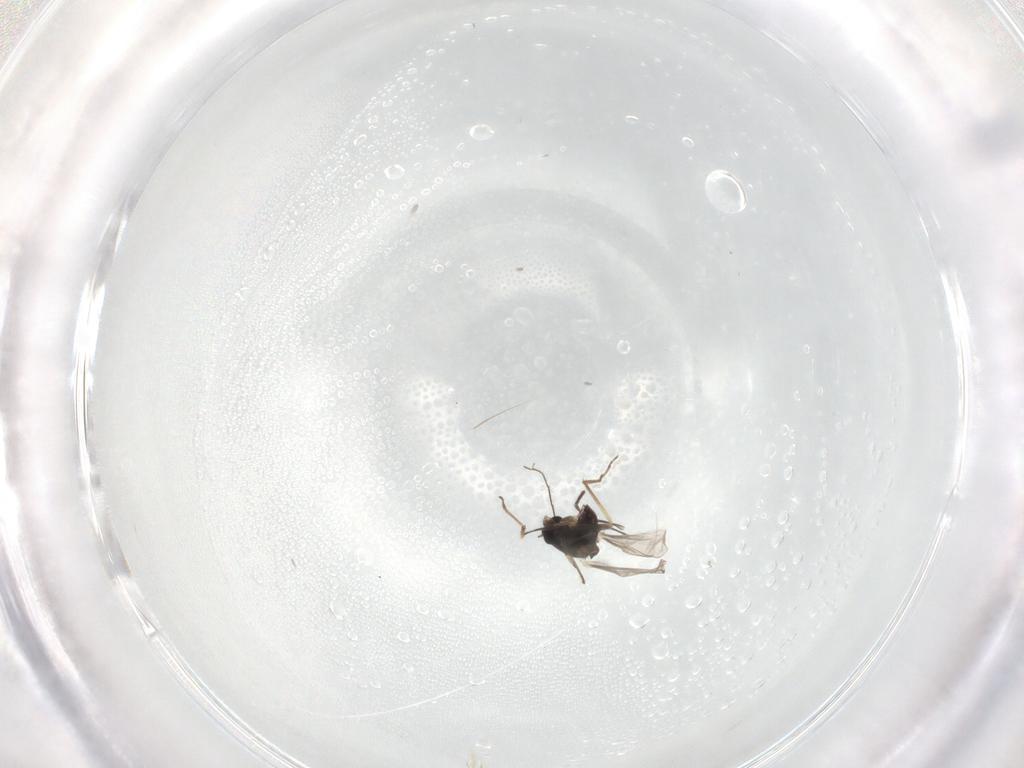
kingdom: Animalia
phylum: Arthropoda
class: Insecta
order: Diptera
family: Chironomidae
